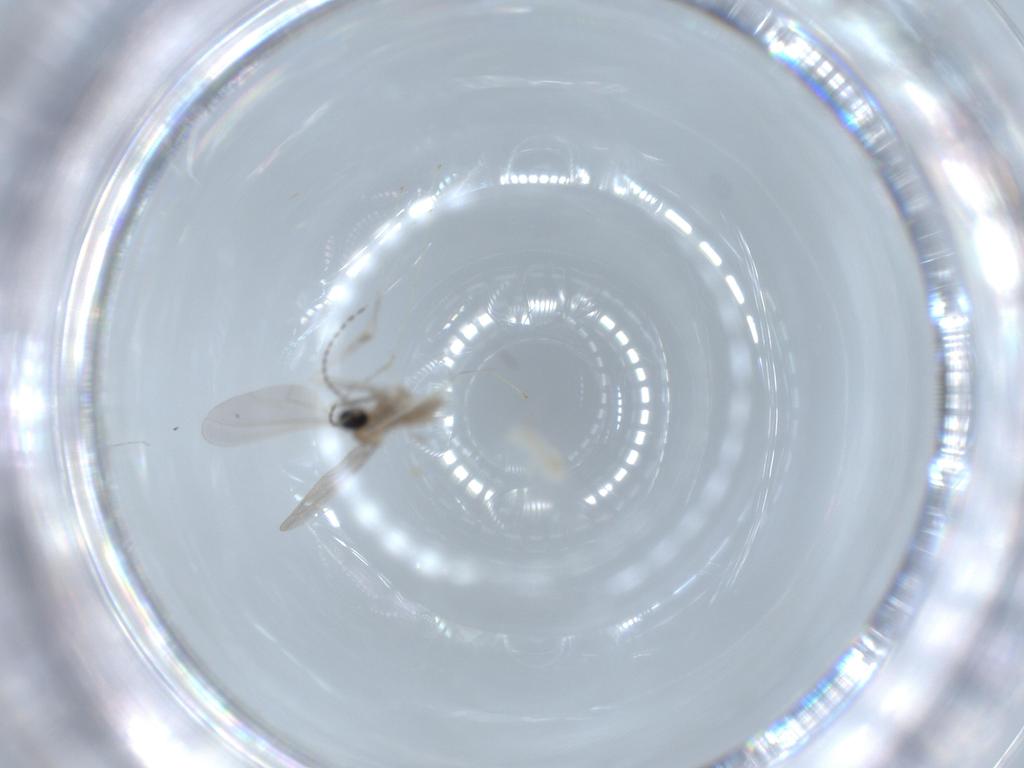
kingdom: Animalia
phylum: Arthropoda
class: Insecta
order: Diptera
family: Cecidomyiidae
